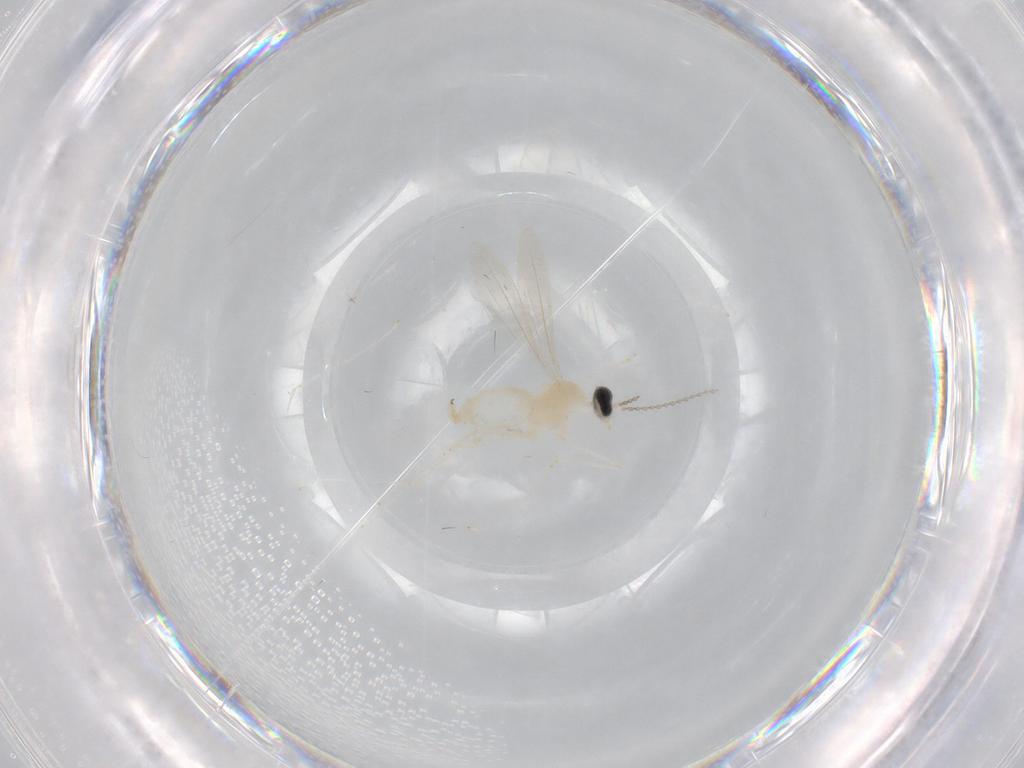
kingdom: Animalia
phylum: Arthropoda
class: Insecta
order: Diptera
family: Cecidomyiidae
